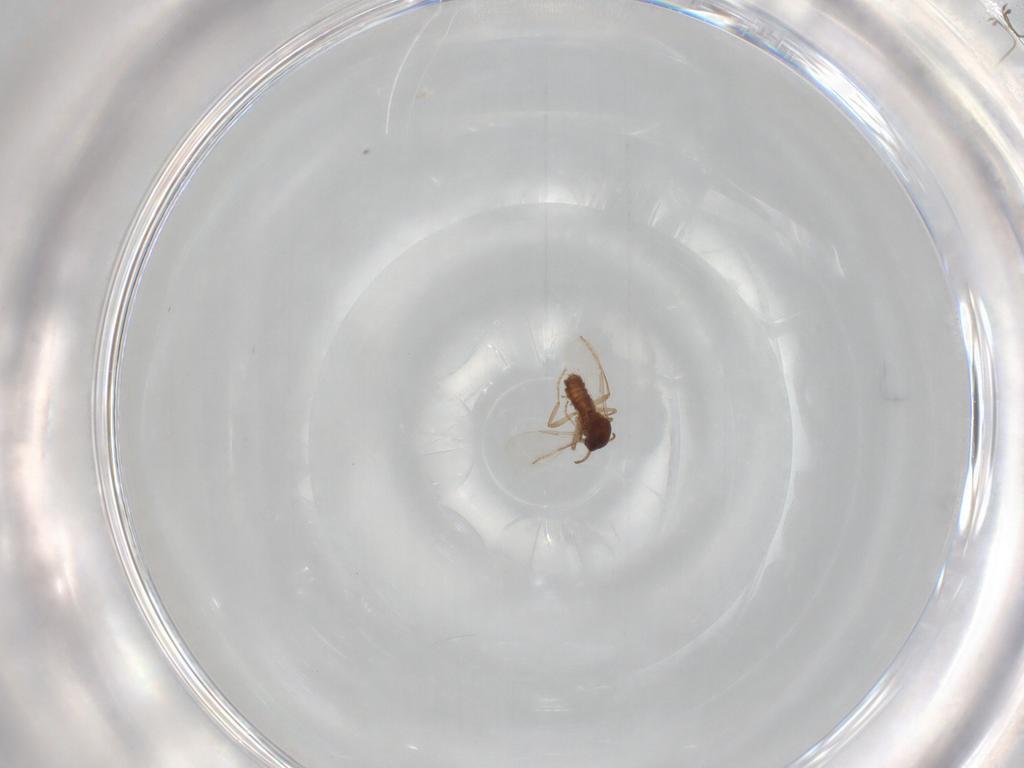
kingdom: Animalia
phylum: Arthropoda
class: Insecta
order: Diptera
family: Ceratopogonidae
